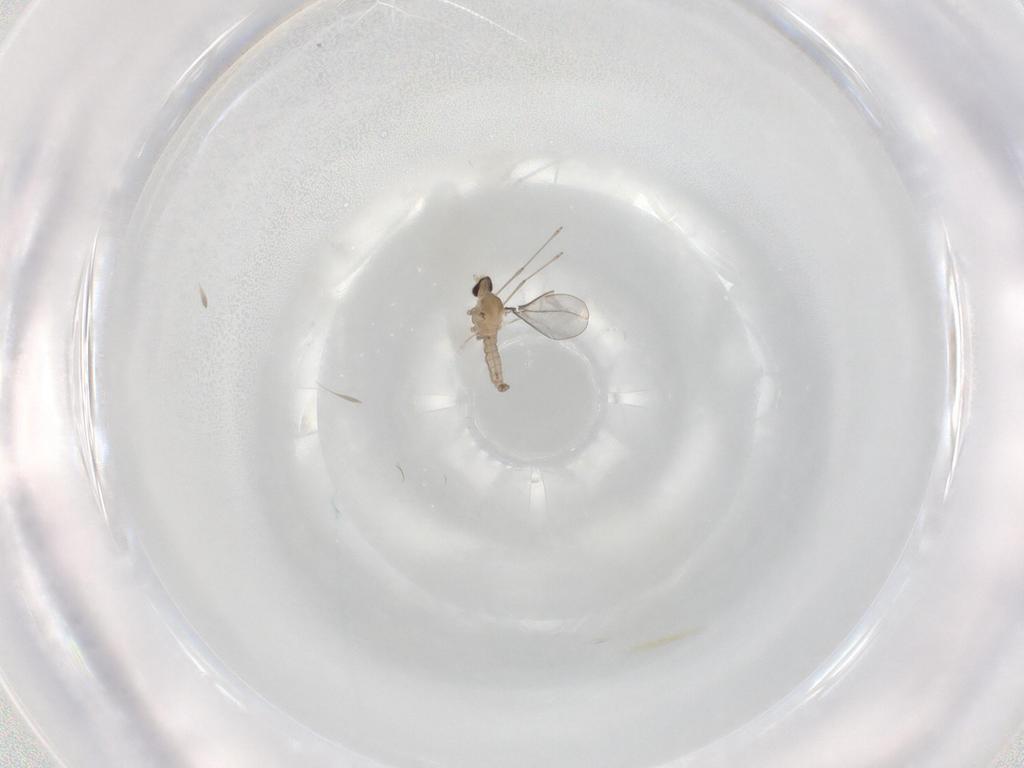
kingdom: Animalia
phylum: Arthropoda
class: Insecta
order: Diptera
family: Cecidomyiidae
